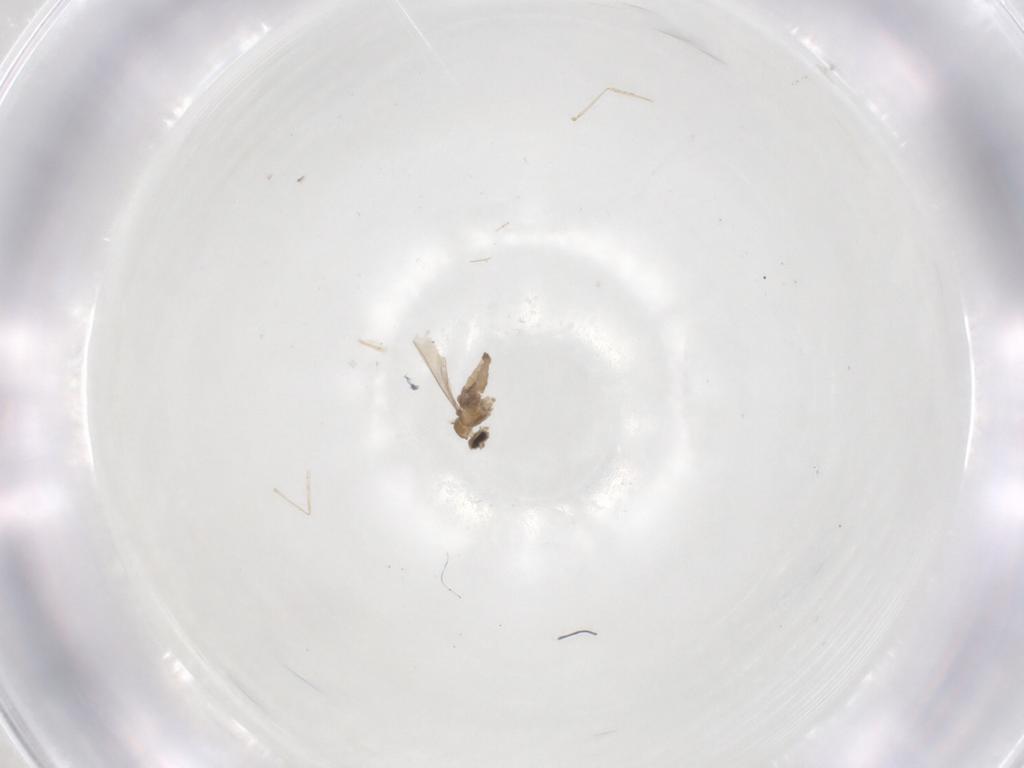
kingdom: Animalia
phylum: Arthropoda
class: Insecta
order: Diptera
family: Cecidomyiidae
